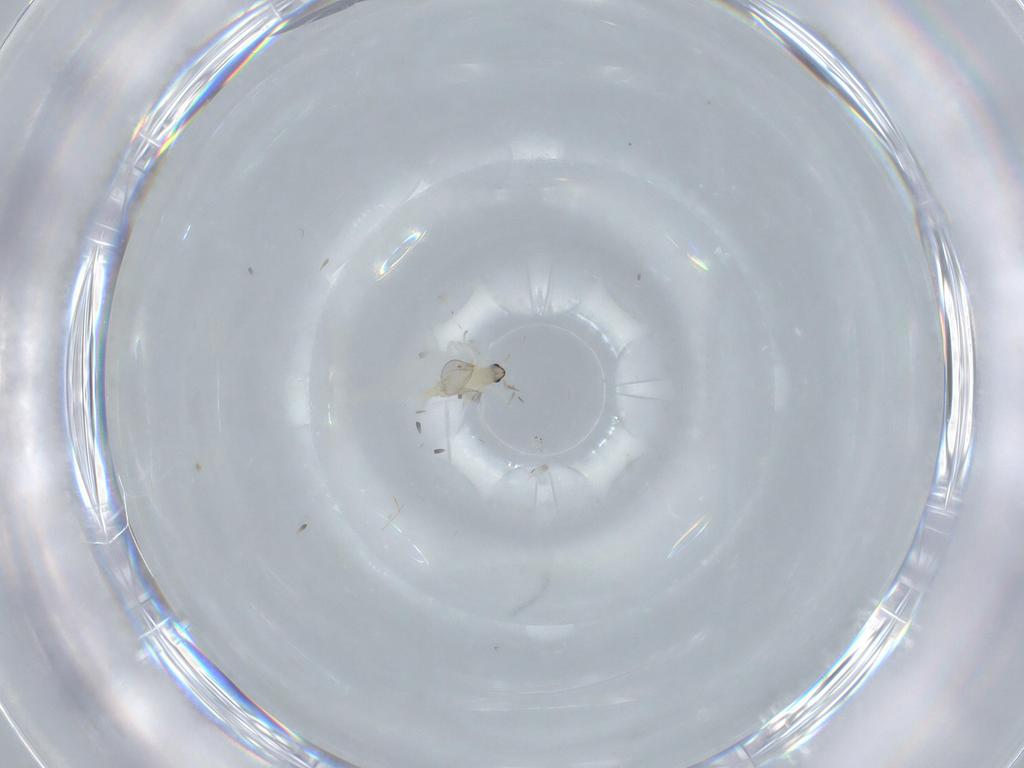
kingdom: Animalia
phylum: Arthropoda
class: Insecta
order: Diptera
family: Cecidomyiidae
